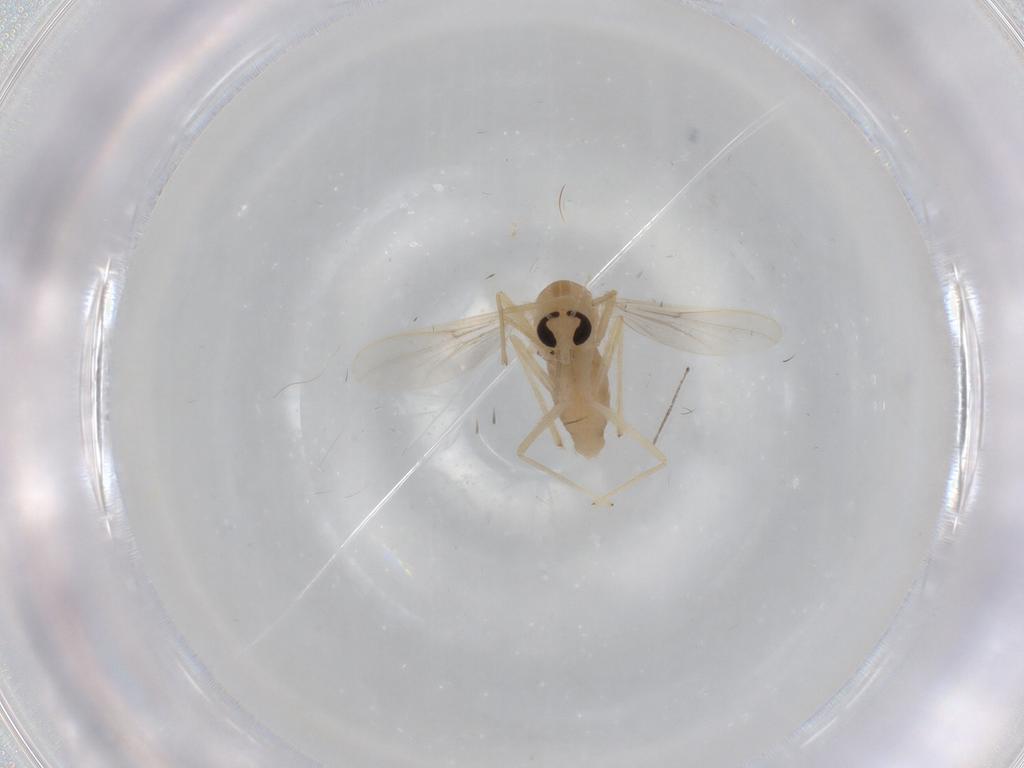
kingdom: Animalia
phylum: Arthropoda
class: Insecta
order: Diptera
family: Chironomidae
